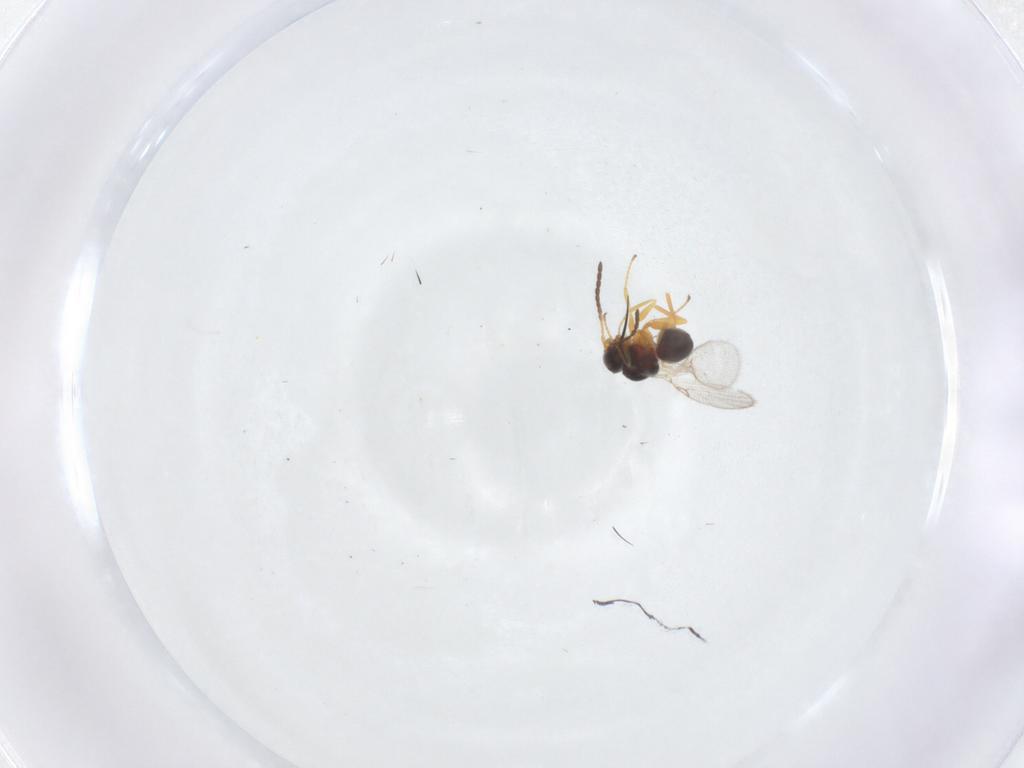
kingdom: Animalia
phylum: Arthropoda
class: Insecta
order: Hymenoptera
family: Figitidae
